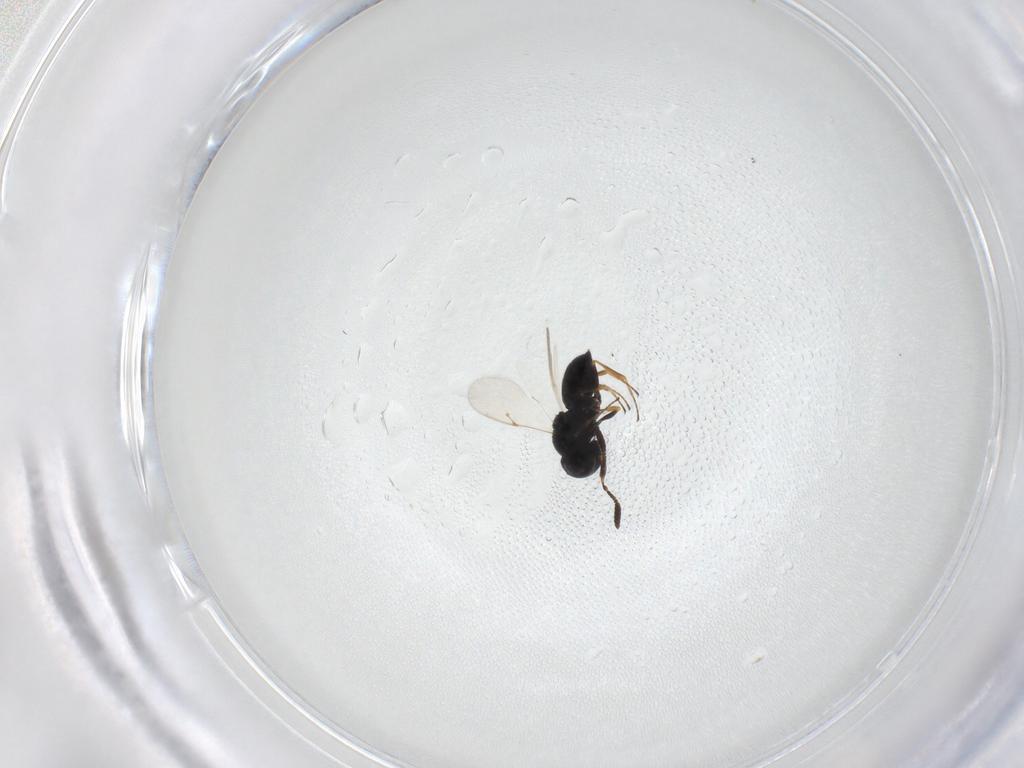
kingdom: Animalia
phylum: Arthropoda
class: Insecta
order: Hymenoptera
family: Scelionidae
